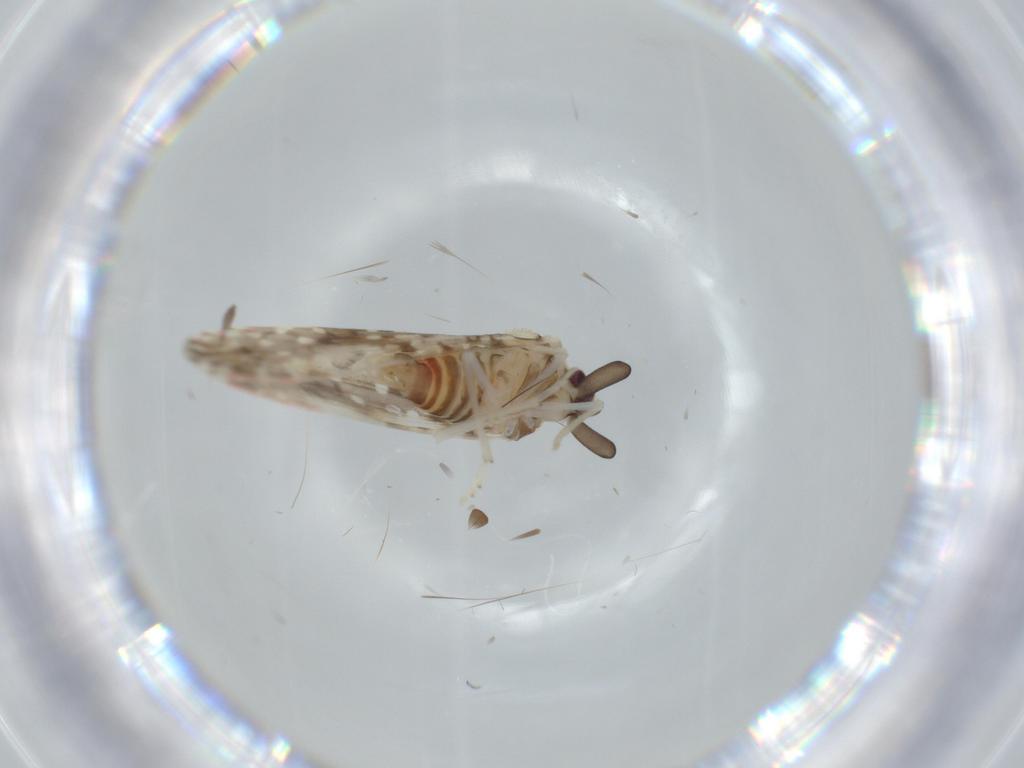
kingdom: Animalia
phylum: Arthropoda
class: Insecta
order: Hemiptera
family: Derbidae
